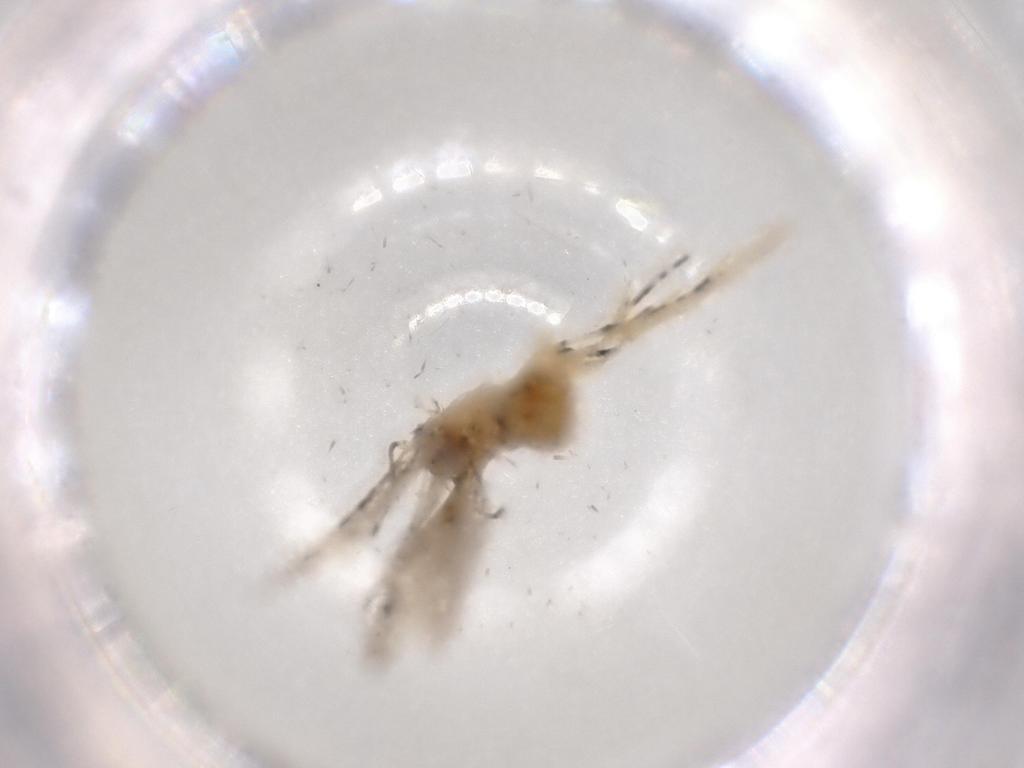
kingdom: Animalia
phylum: Arthropoda
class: Insecta
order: Lepidoptera
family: Tineidae
